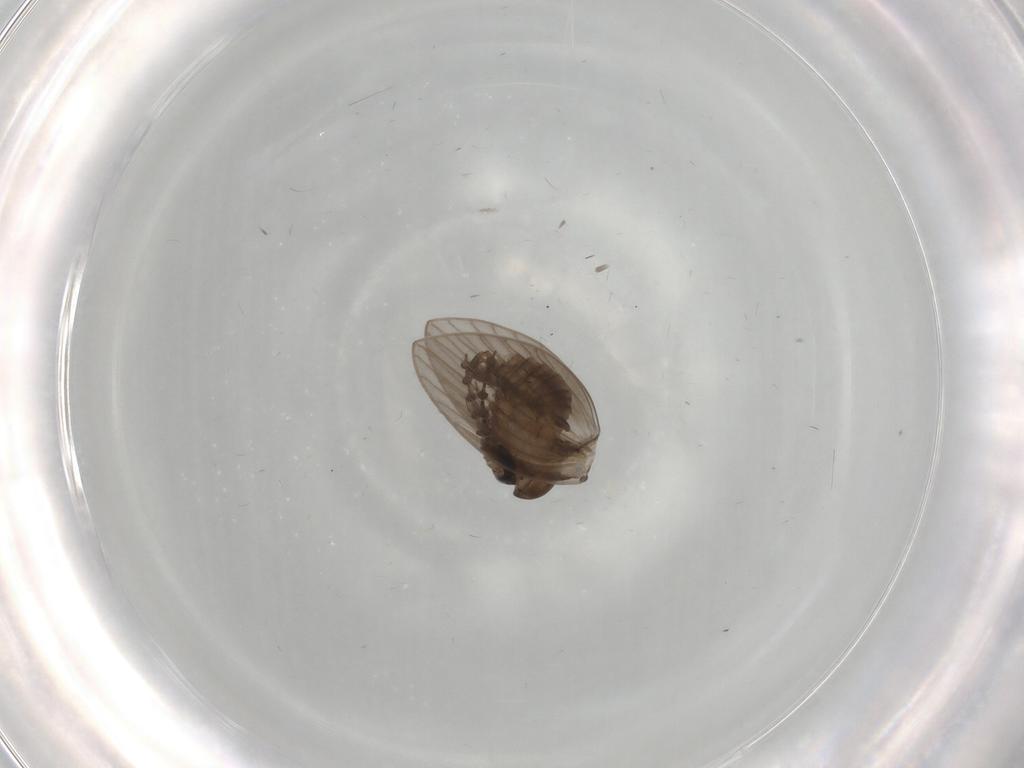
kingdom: Animalia
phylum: Arthropoda
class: Insecta
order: Diptera
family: Psychodidae
